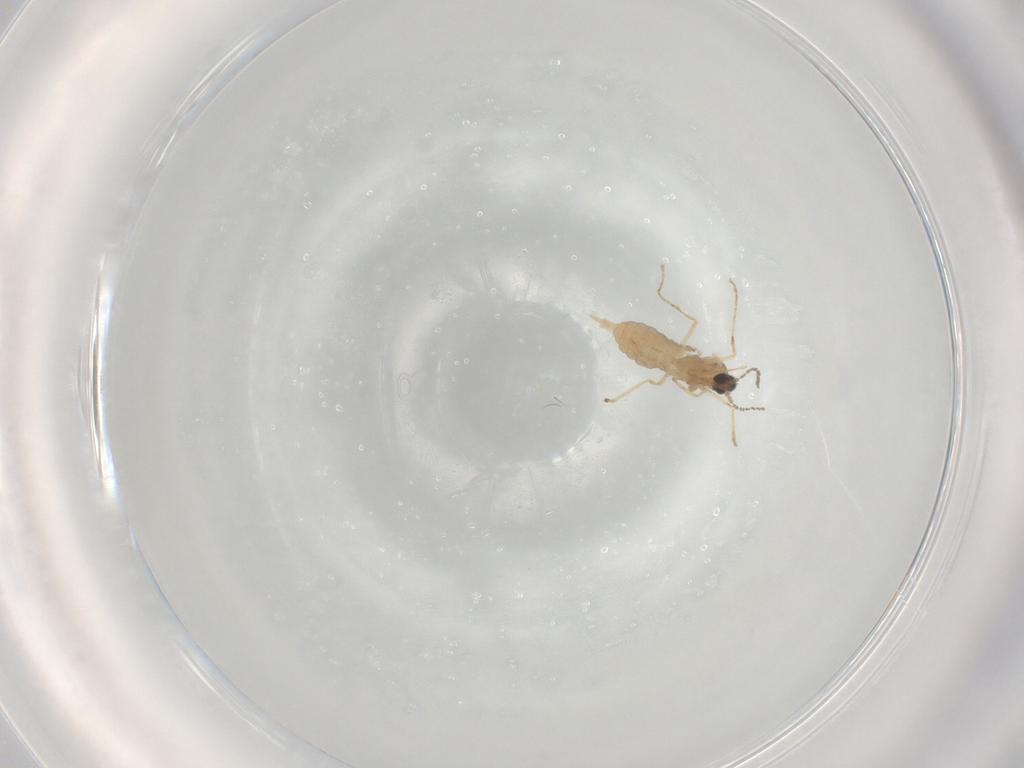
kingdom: Animalia
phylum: Arthropoda
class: Insecta
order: Diptera
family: Cecidomyiidae
